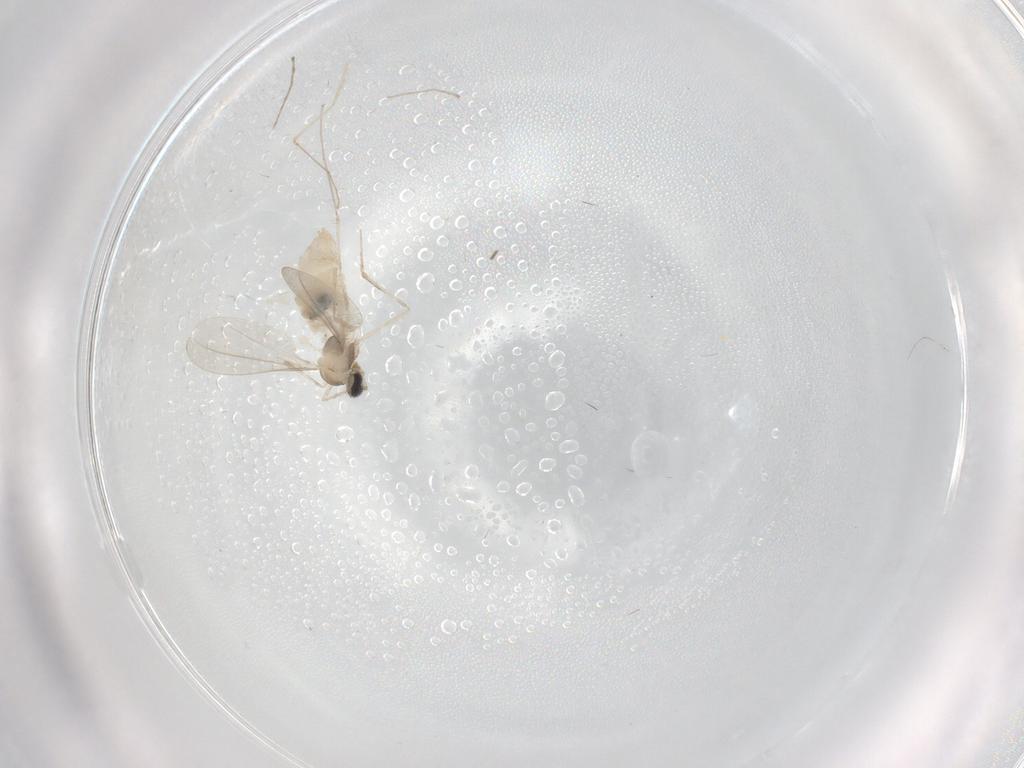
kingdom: Animalia
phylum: Arthropoda
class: Insecta
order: Diptera
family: Cecidomyiidae
